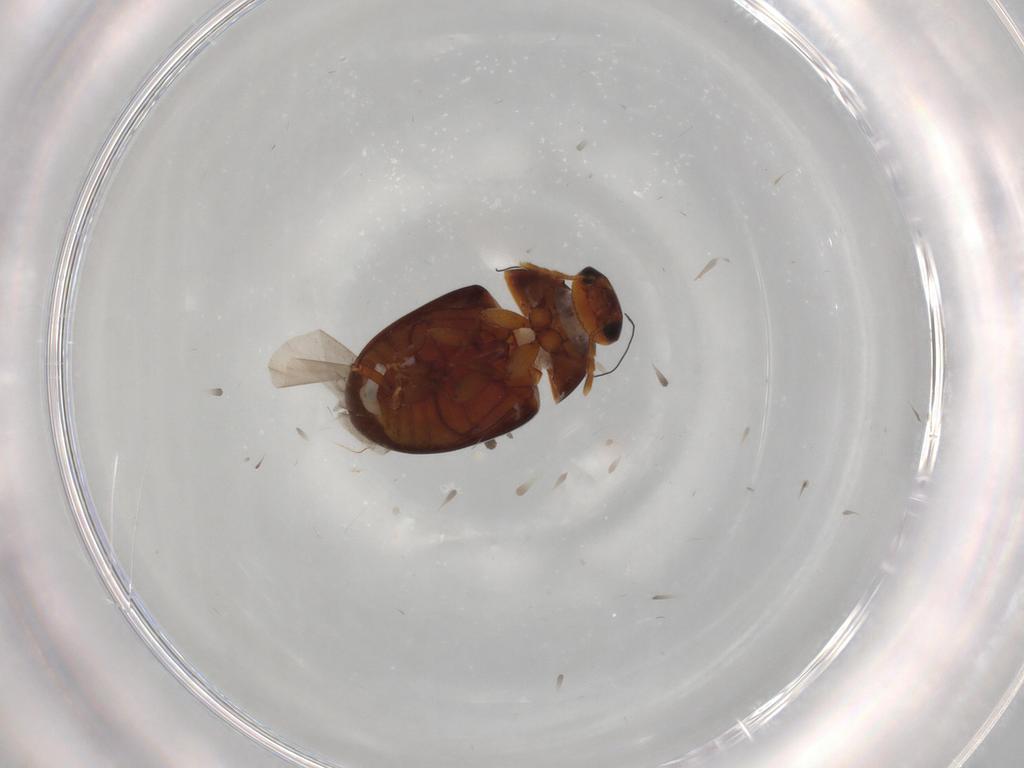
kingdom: Animalia
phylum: Arthropoda
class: Insecta
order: Coleoptera
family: Phalacridae
